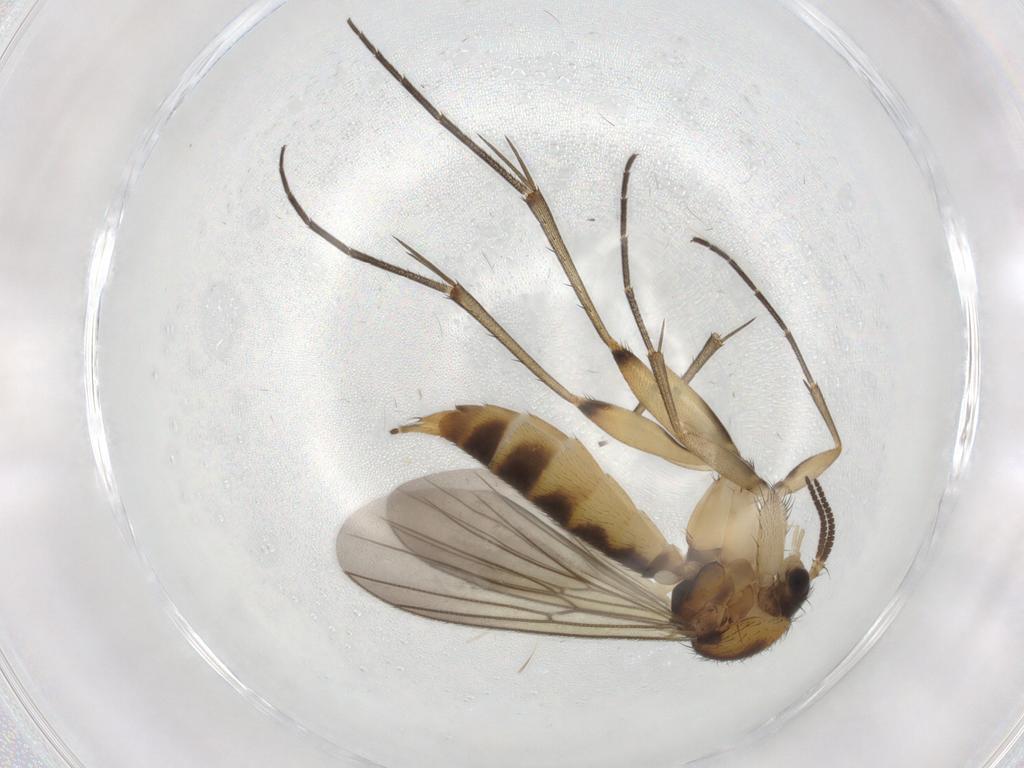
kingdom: Animalia
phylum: Arthropoda
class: Insecta
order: Diptera
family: Mycetophilidae
